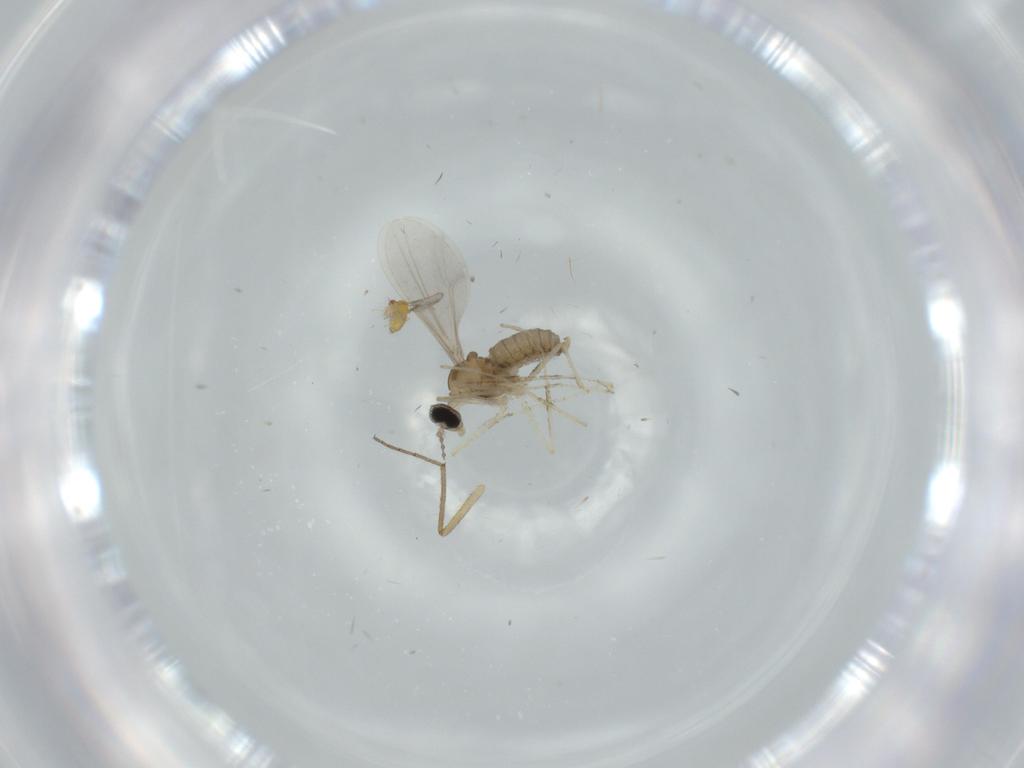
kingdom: Animalia
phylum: Arthropoda
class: Insecta
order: Diptera
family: Cecidomyiidae
